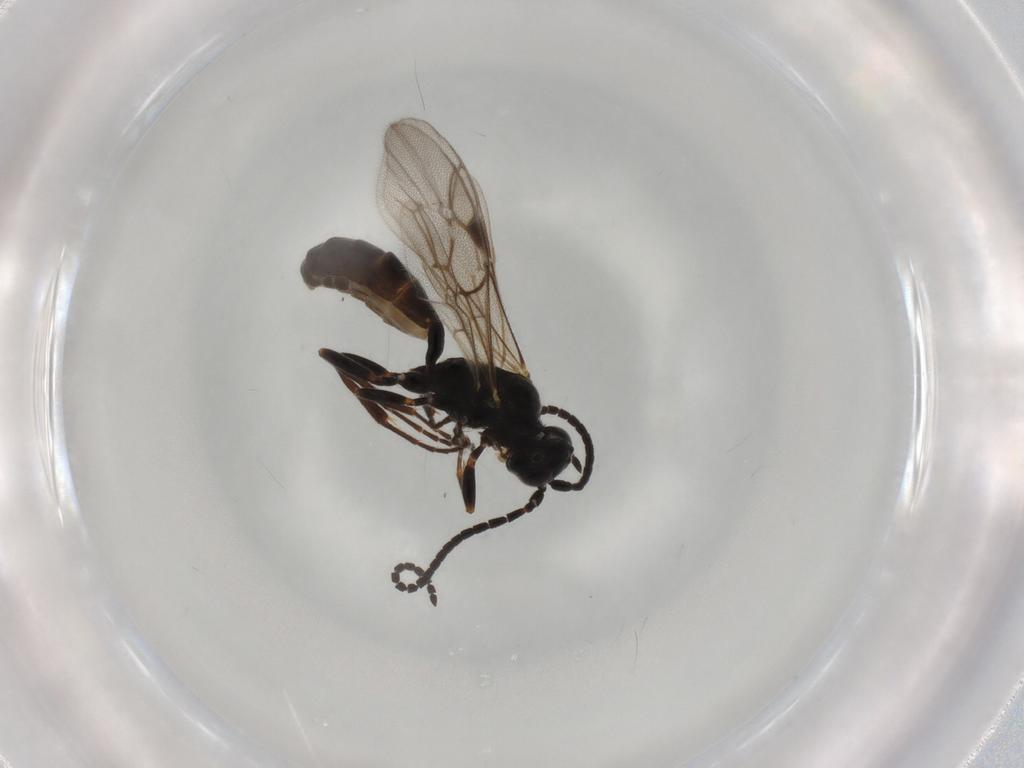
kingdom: Animalia
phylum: Arthropoda
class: Insecta
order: Hymenoptera
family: Ichneumonidae
